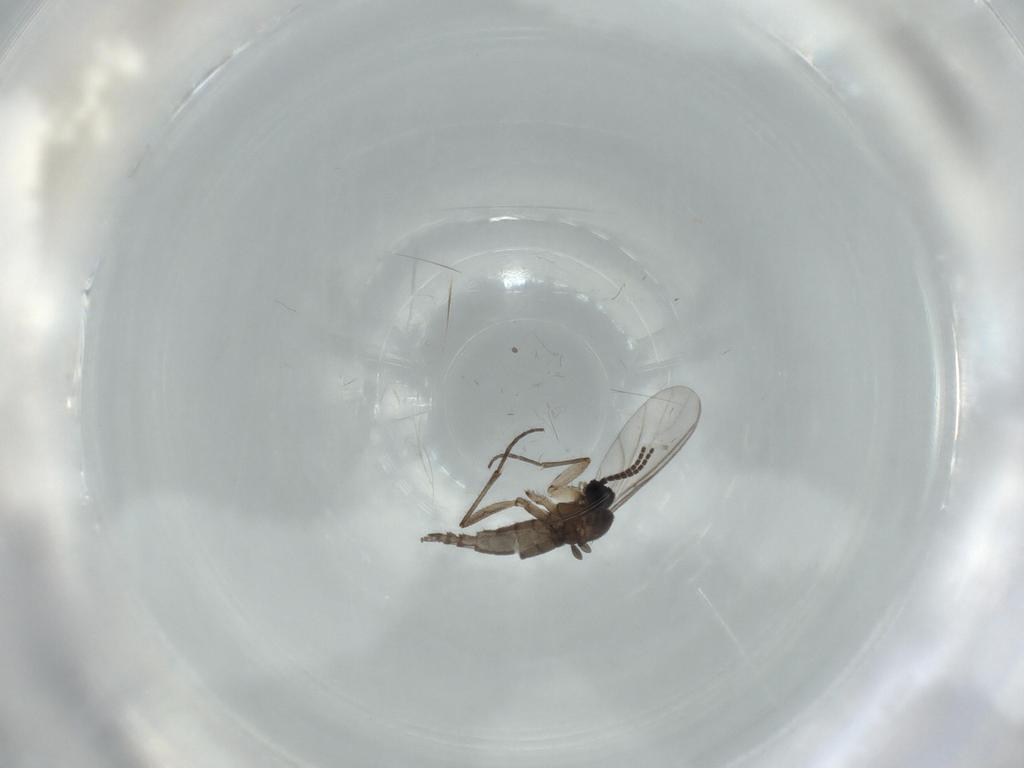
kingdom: Animalia
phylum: Arthropoda
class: Insecta
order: Diptera
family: Sciaridae
